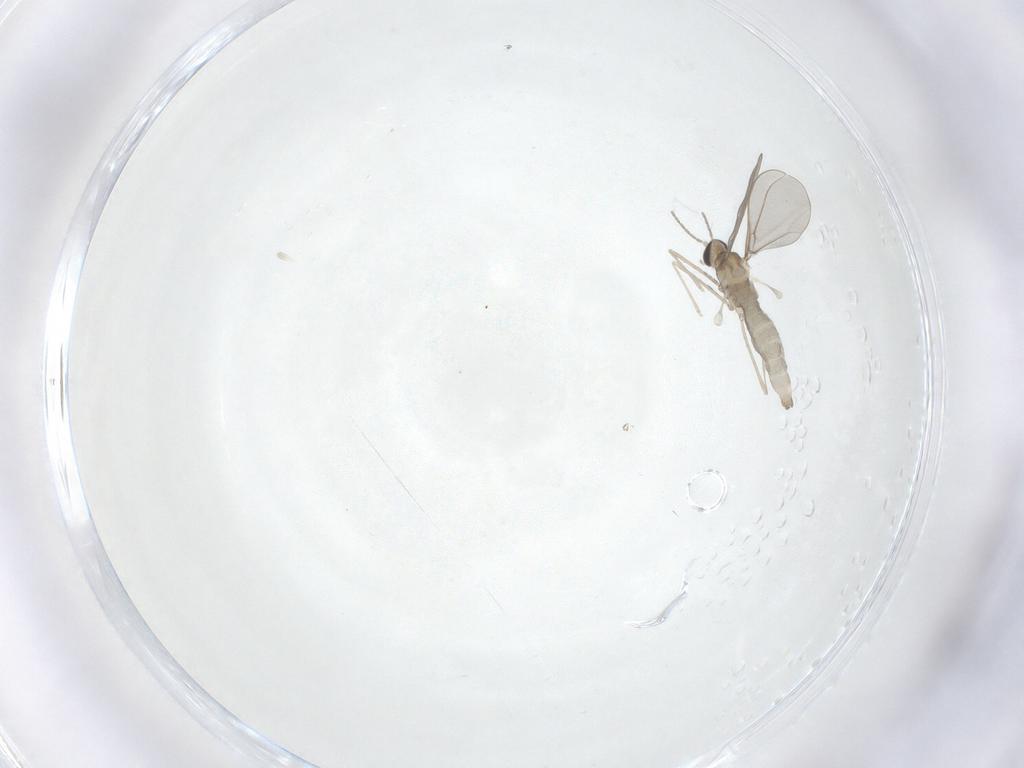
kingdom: Animalia
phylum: Arthropoda
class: Insecta
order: Diptera
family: Cecidomyiidae
